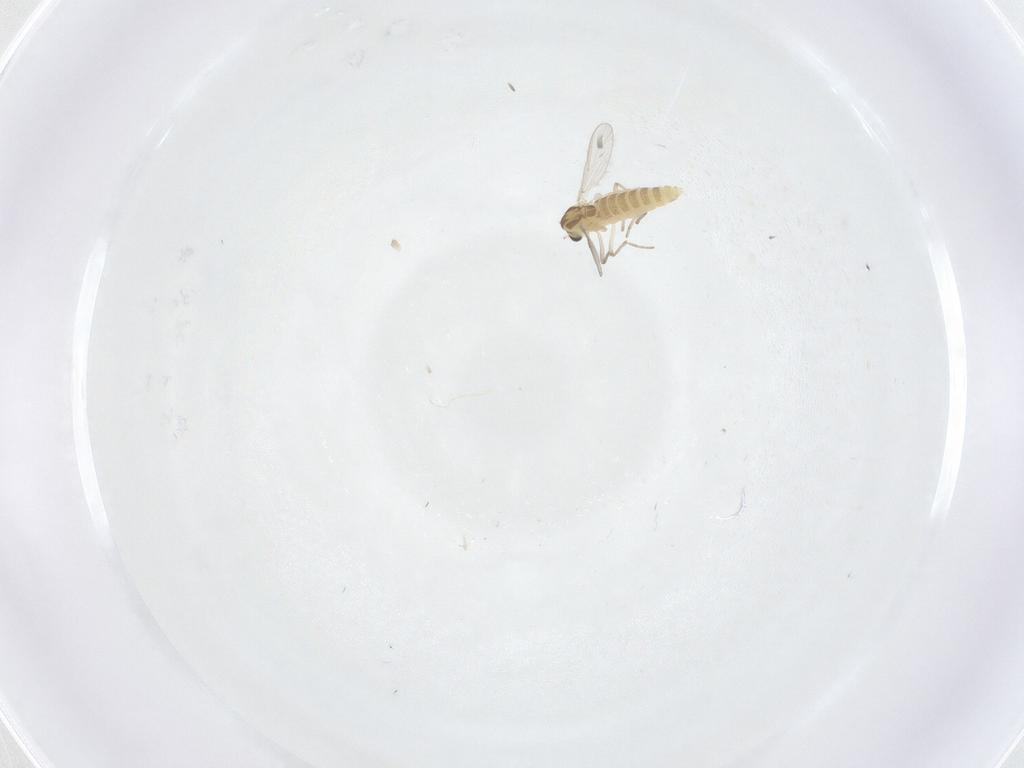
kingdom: Animalia
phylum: Arthropoda
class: Insecta
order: Diptera
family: Chironomidae
